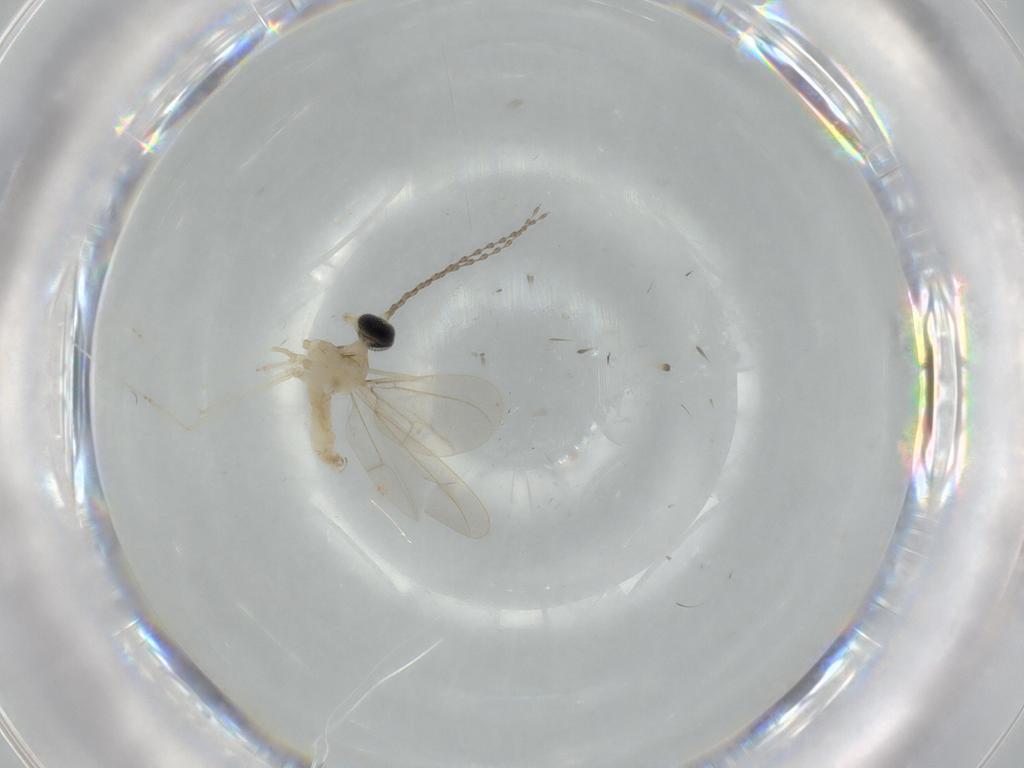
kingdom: Animalia
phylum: Arthropoda
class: Insecta
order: Diptera
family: Cecidomyiidae
